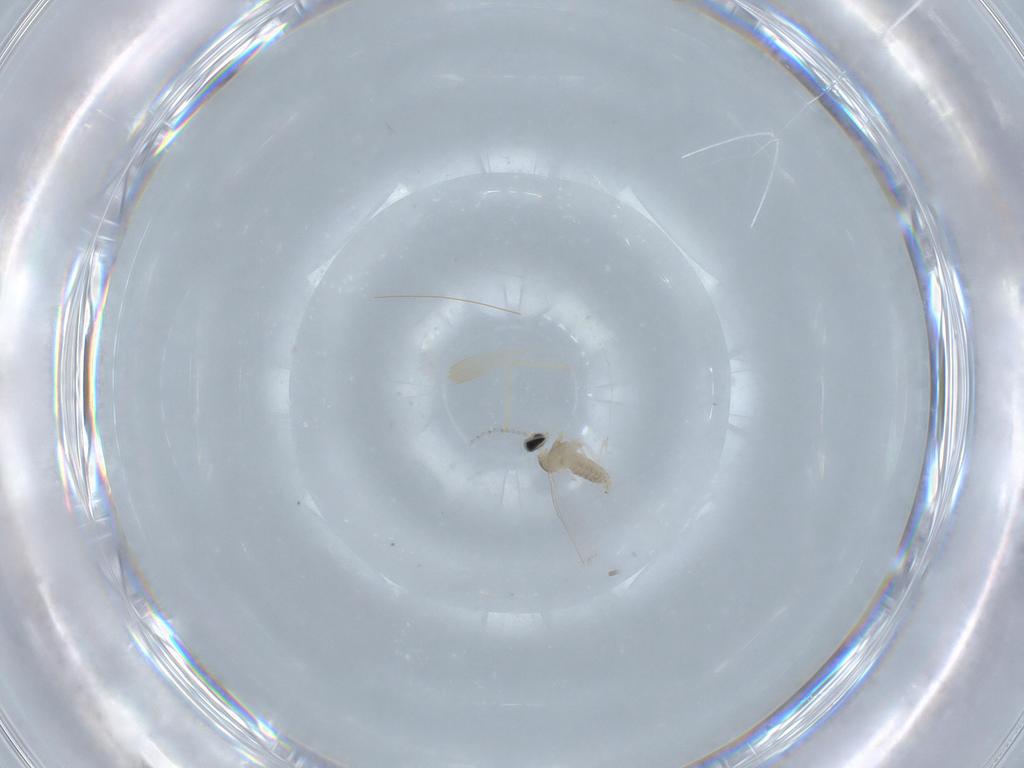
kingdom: Animalia
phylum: Arthropoda
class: Insecta
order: Diptera
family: Cecidomyiidae
